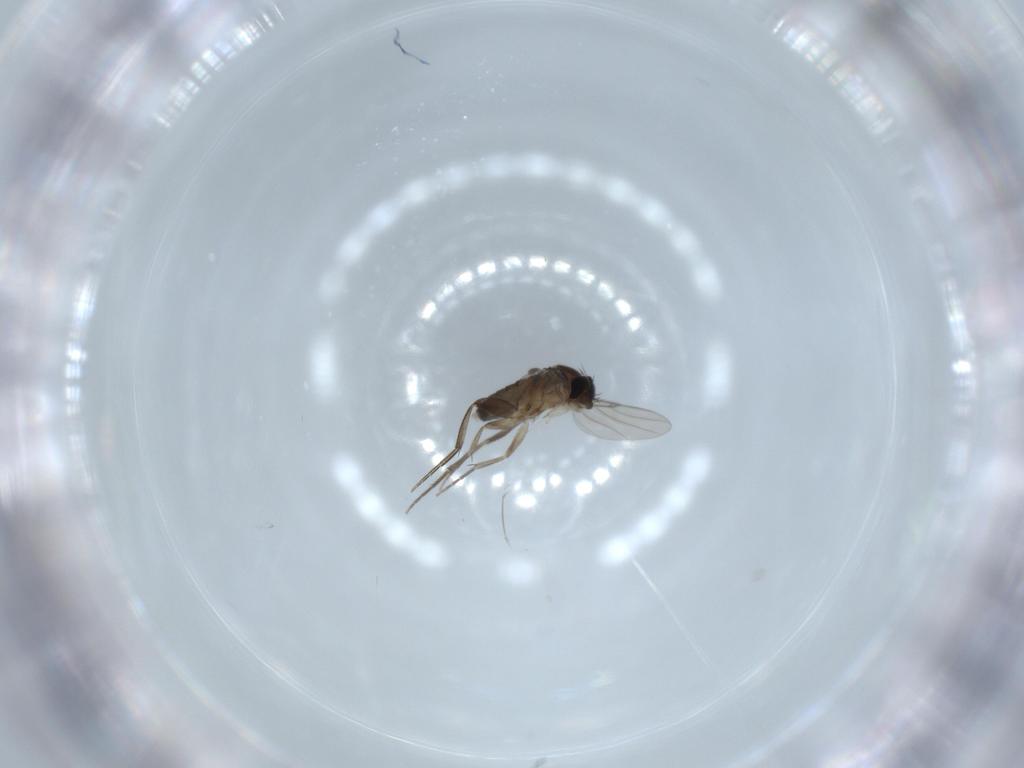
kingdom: Animalia
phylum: Arthropoda
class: Insecta
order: Diptera
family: Phoridae
